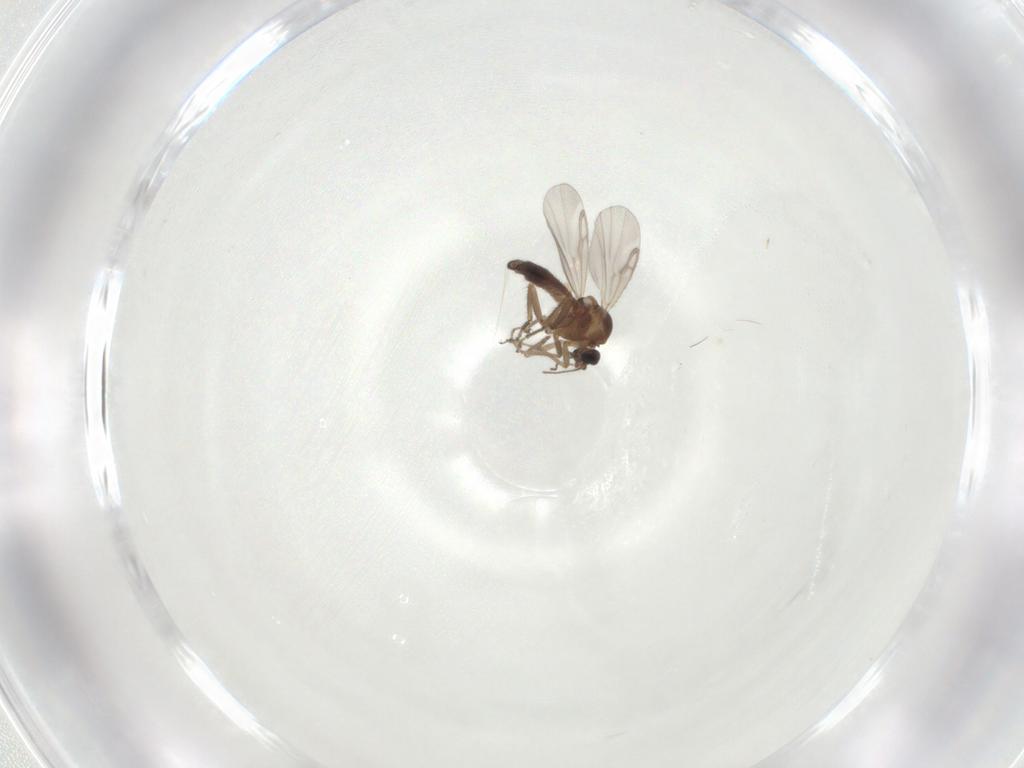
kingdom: Animalia
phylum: Arthropoda
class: Insecta
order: Diptera
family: Ceratopogonidae
